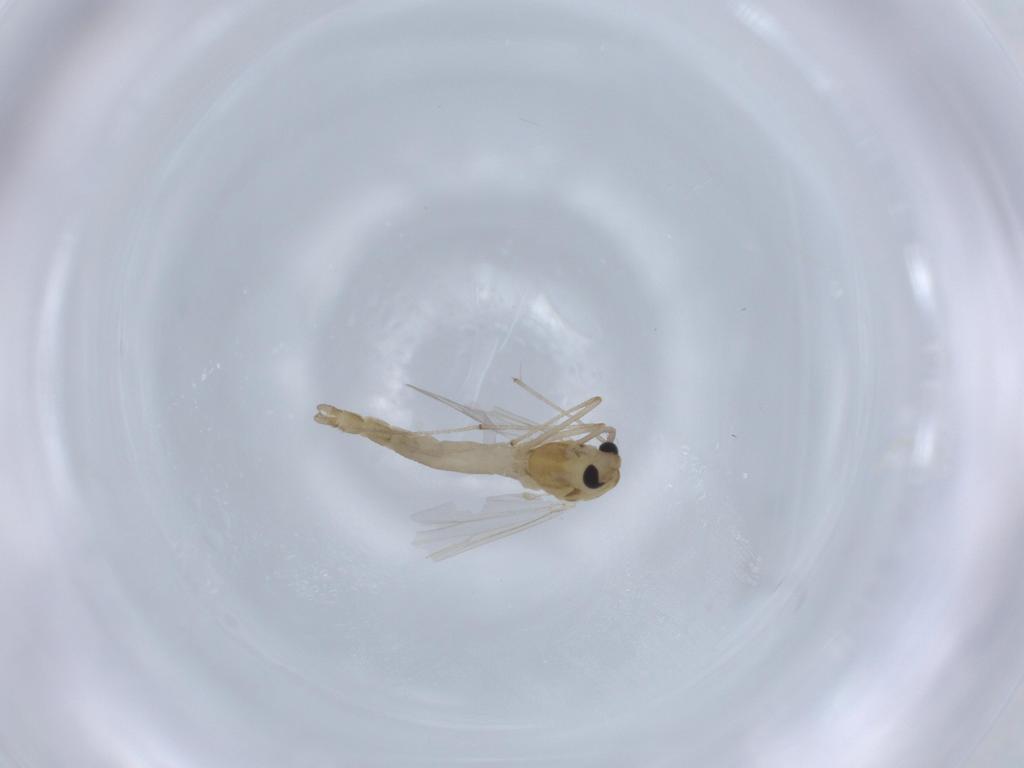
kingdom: Animalia
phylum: Arthropoda
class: Insecta
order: Diptera
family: Chironomidae
